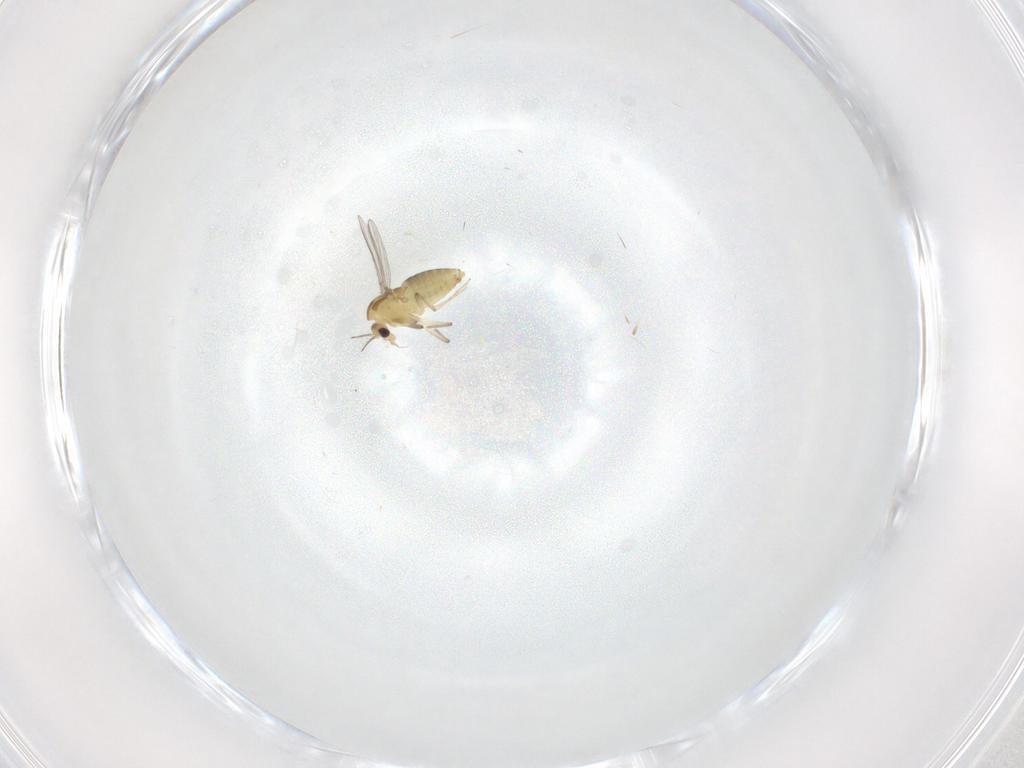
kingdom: Animalia
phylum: Arthropoda
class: Insecta
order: Diptera
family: Chironomidae
